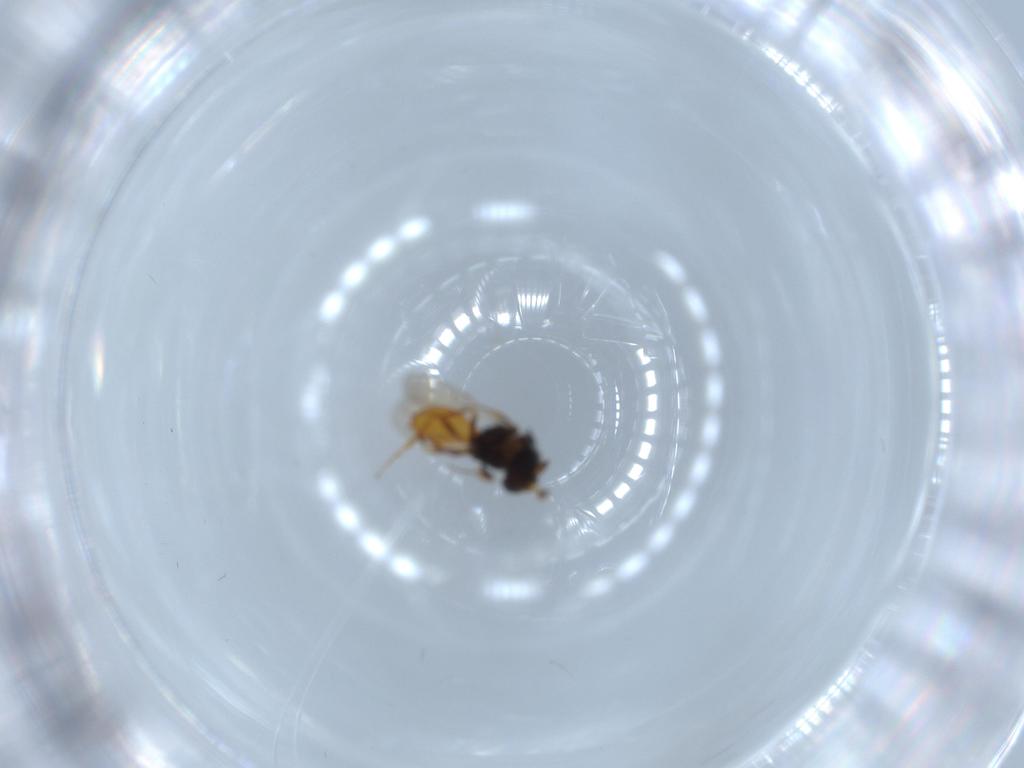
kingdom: Animalia
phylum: Arthropoda
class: Insecta
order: Hymenoptera
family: Scelionidae
